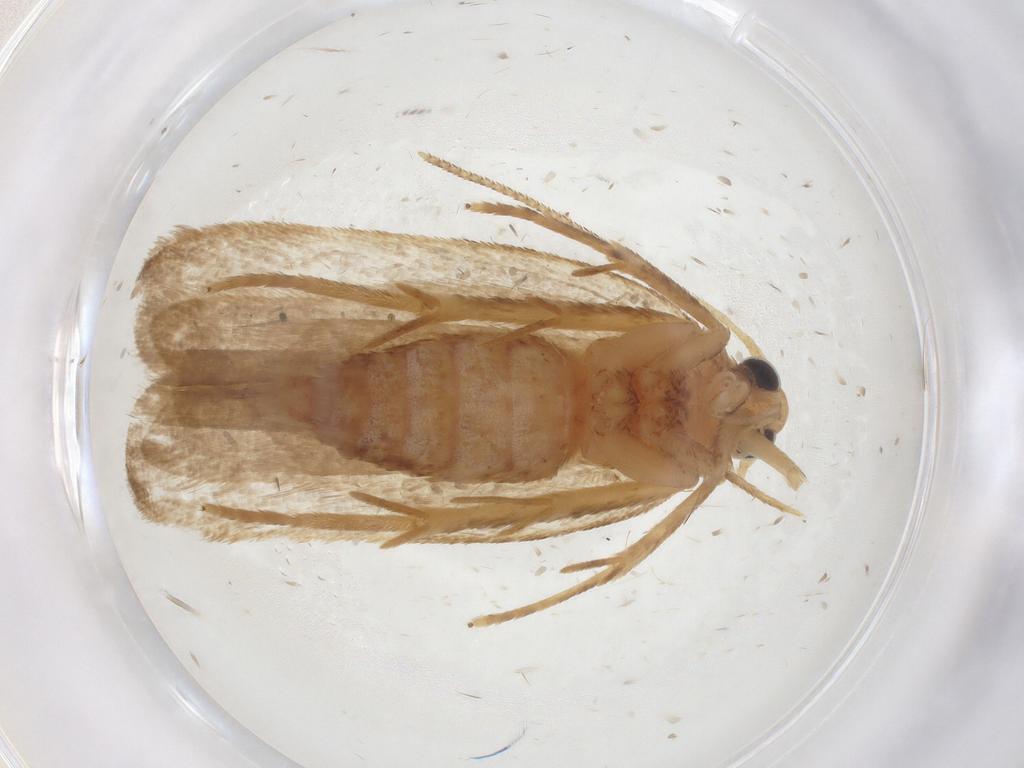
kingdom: Animalia
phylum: Arthropoda
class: Insecta
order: Lepidoptera
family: Autostichidae
